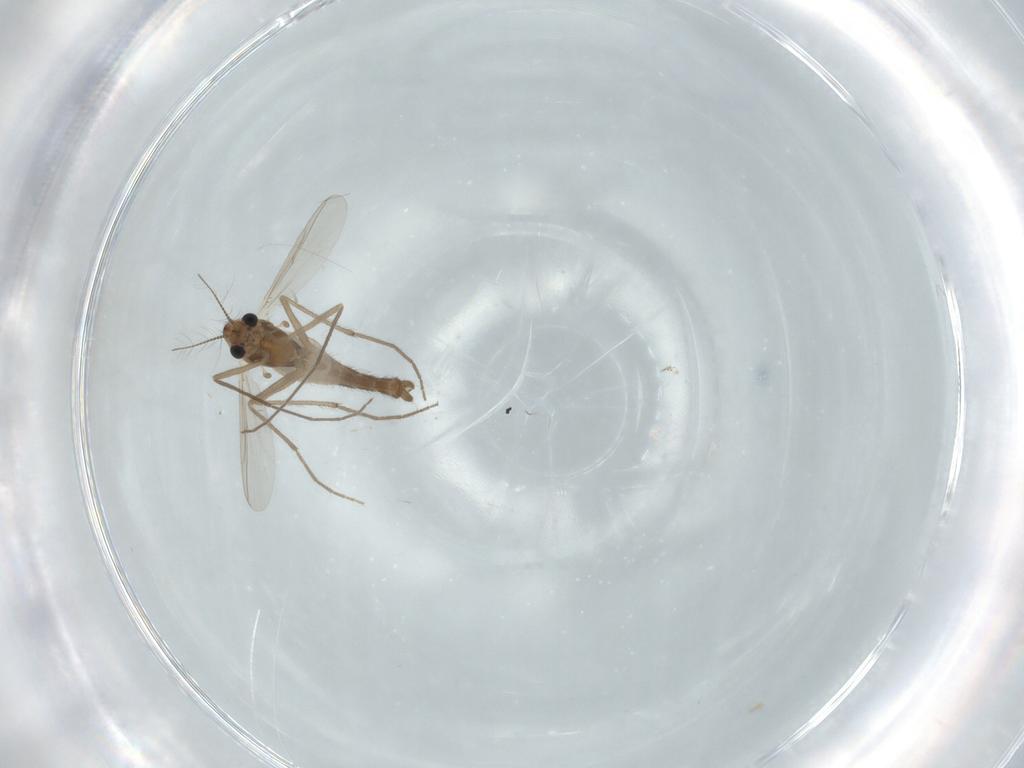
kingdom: Animalia
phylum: Arthropoda
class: Insecta
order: Diptera
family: Chironomidae
